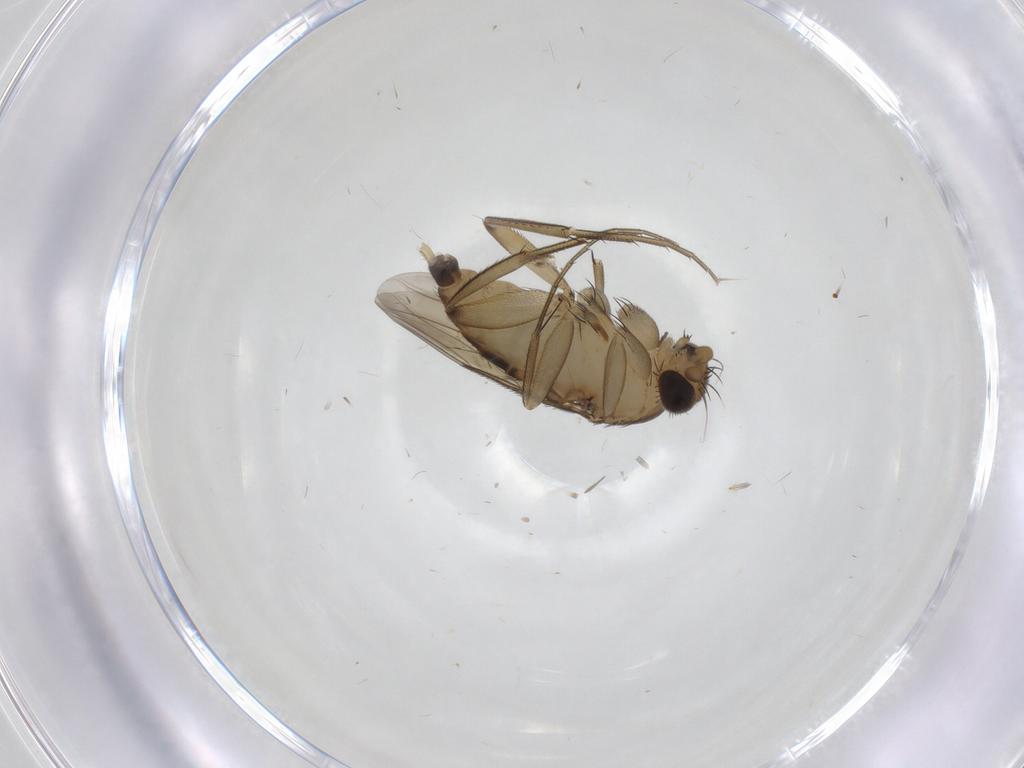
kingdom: Animalia
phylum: Arthropoda
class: Insecta
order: Diptera
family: Phoridae
